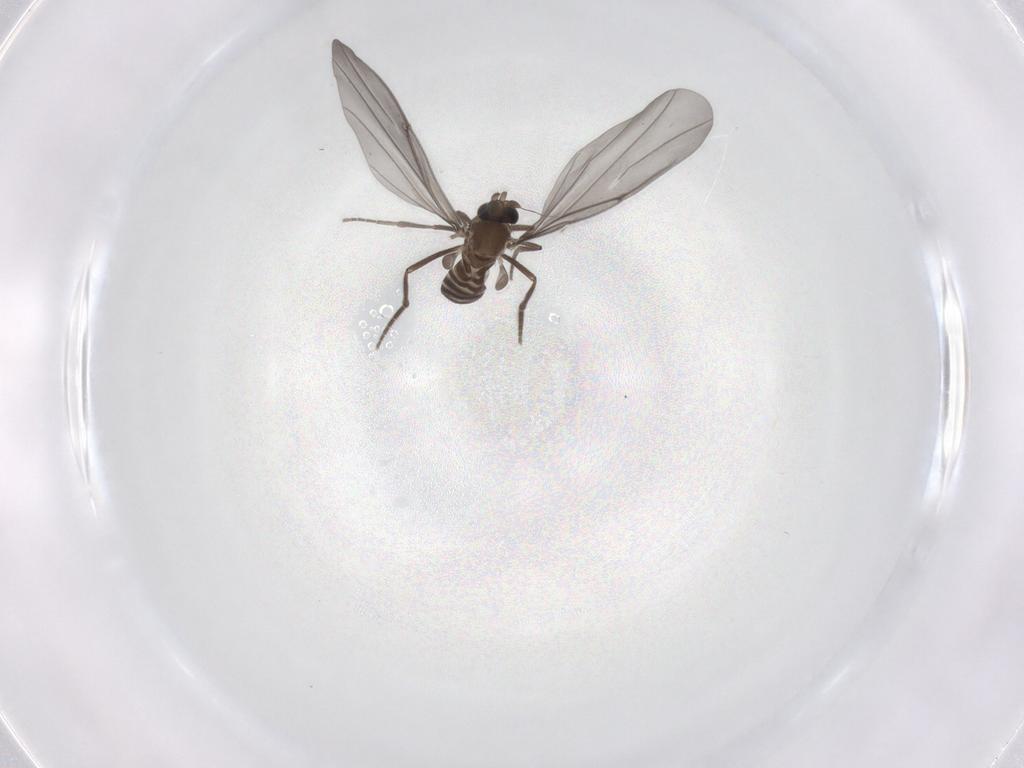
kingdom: Animalia
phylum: Arthropoda
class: Insecta
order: Diptera
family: Phoridae
